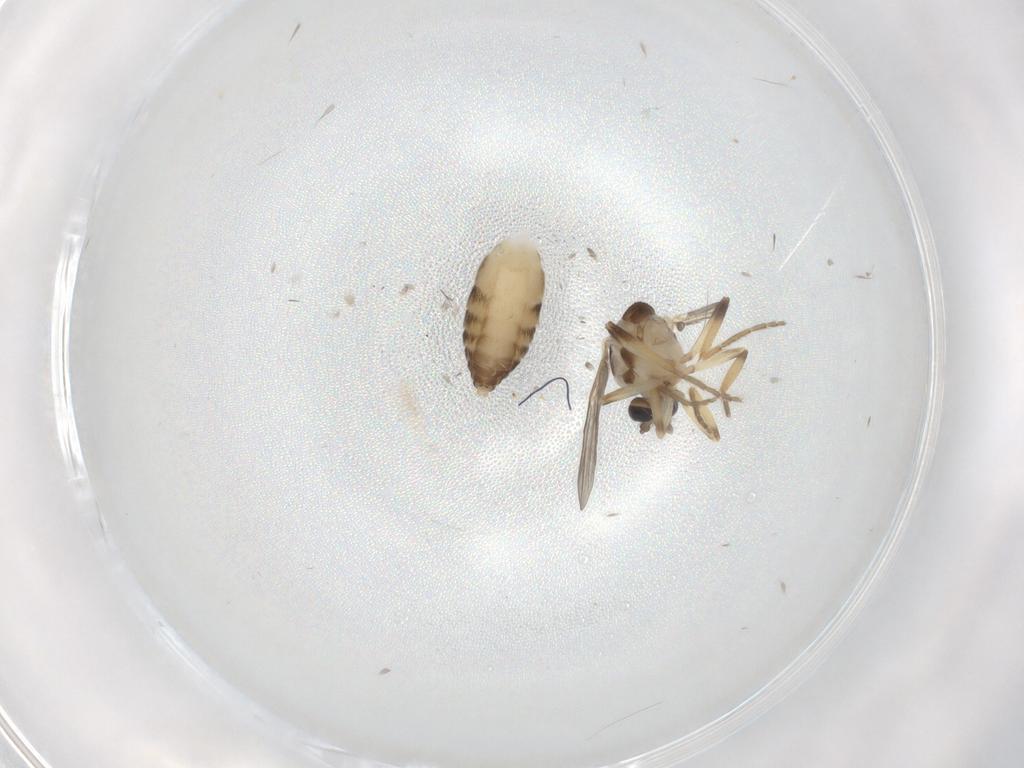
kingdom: Animalia
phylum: Arthropoda
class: Insecta
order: Diptera
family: Ceratopogonidae
